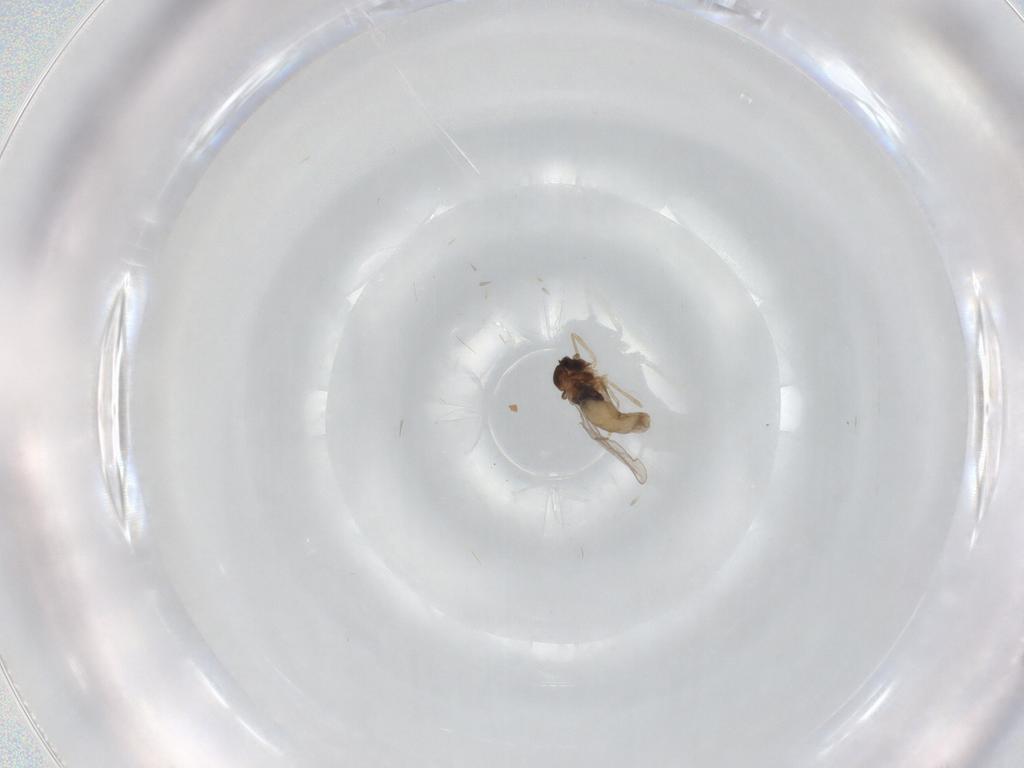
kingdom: Animalia
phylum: Arthropoda
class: Insecta
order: Diptera
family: Cecidomyiidae
